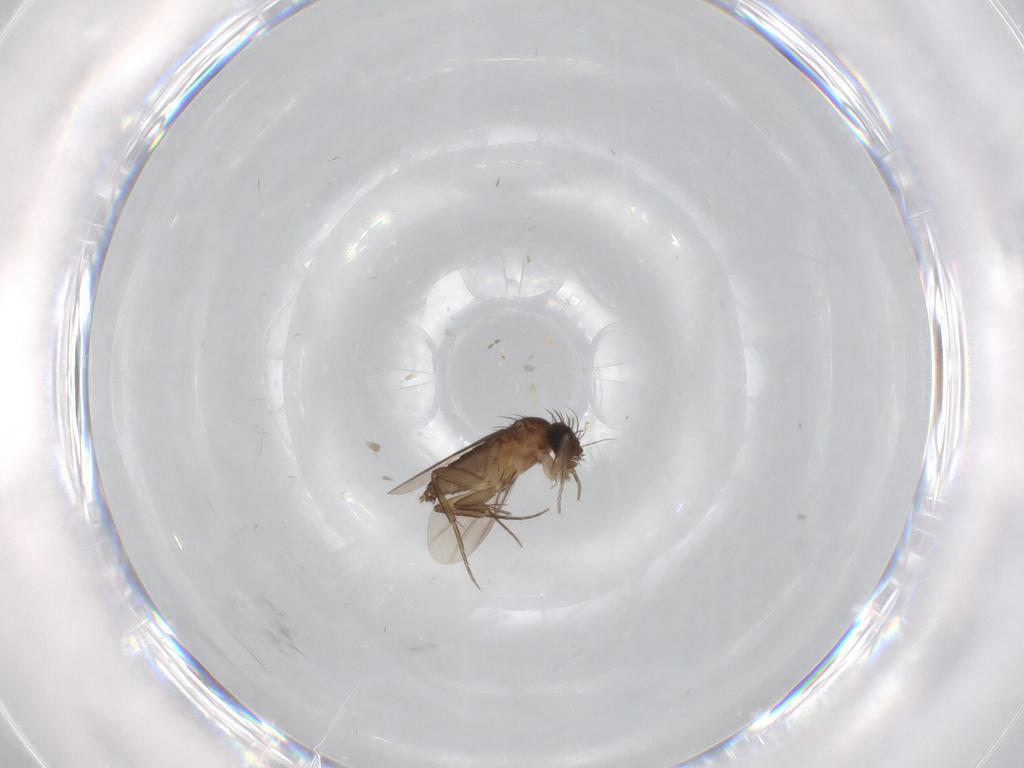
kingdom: Animalia
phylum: Arthropoda
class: Insecta
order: Diptera
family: Phoridae
